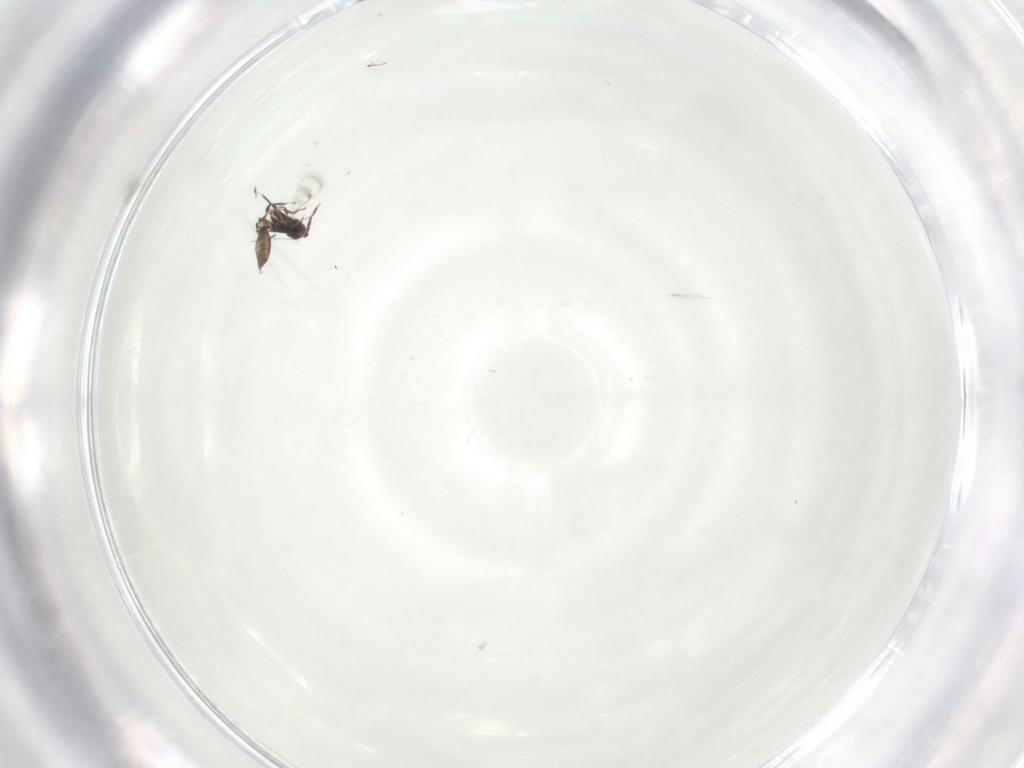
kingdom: Animalia
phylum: Arthropoda
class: Insecta
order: Hymenoptera
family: Eulophidae
